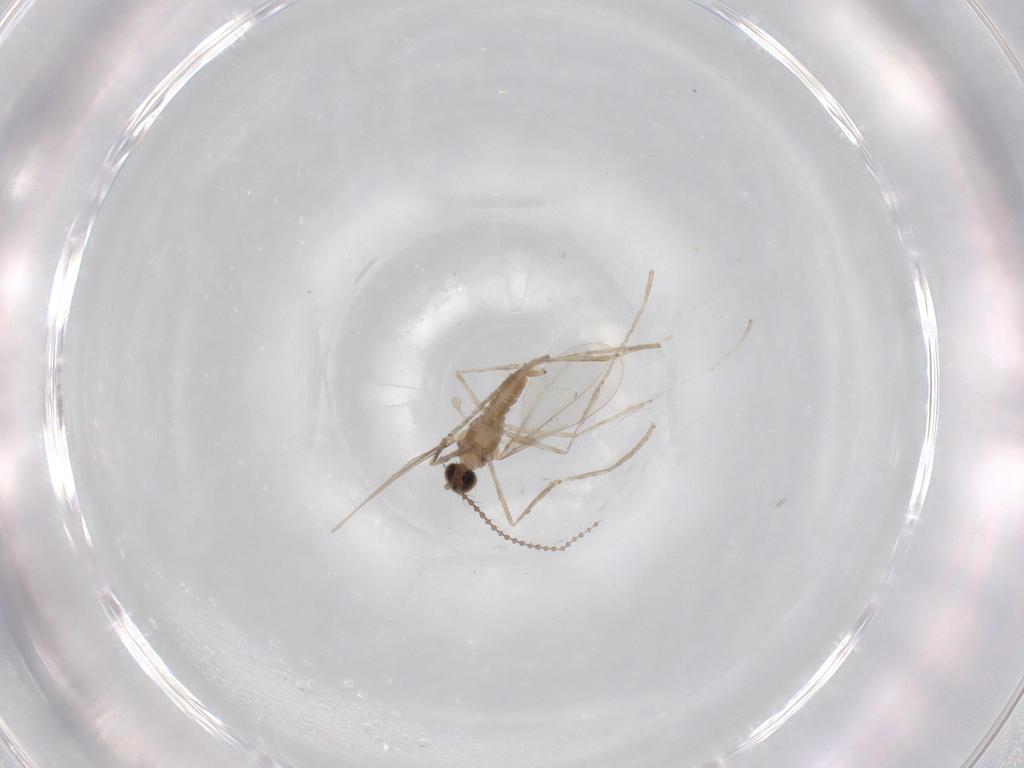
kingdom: Animalia
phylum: Arthropoda
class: Insecta
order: Diptera
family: Cecidomyiidae
